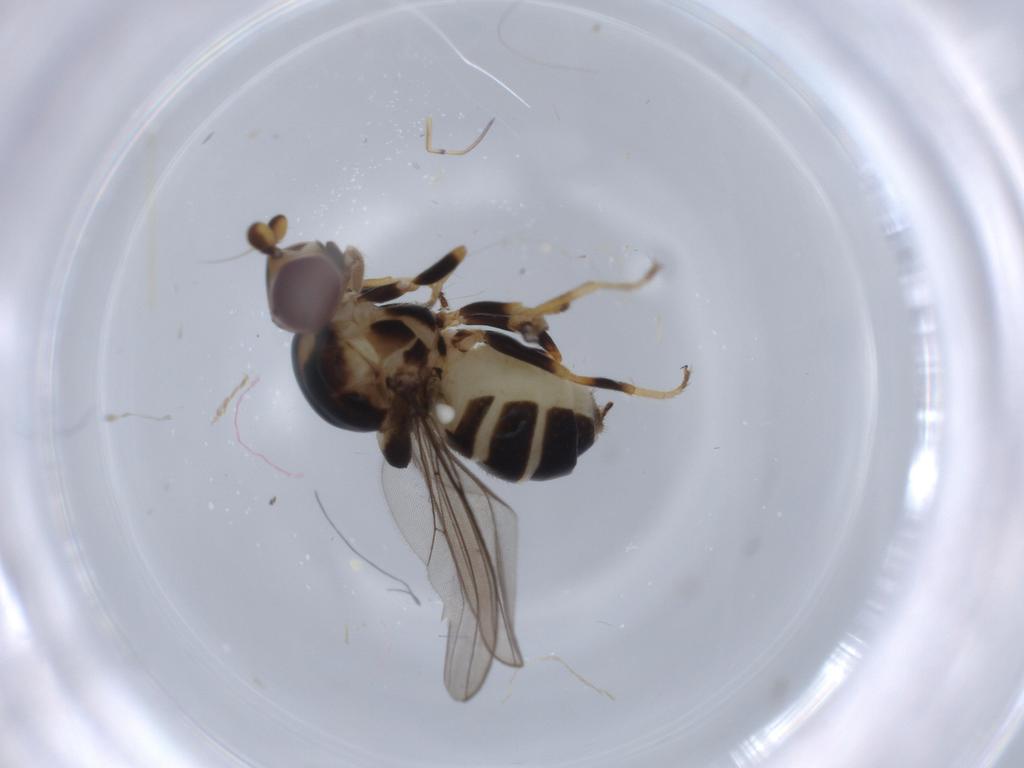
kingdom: Animalia
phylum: Arthropoda
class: Insecta
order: Diptera
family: Chloropidae
